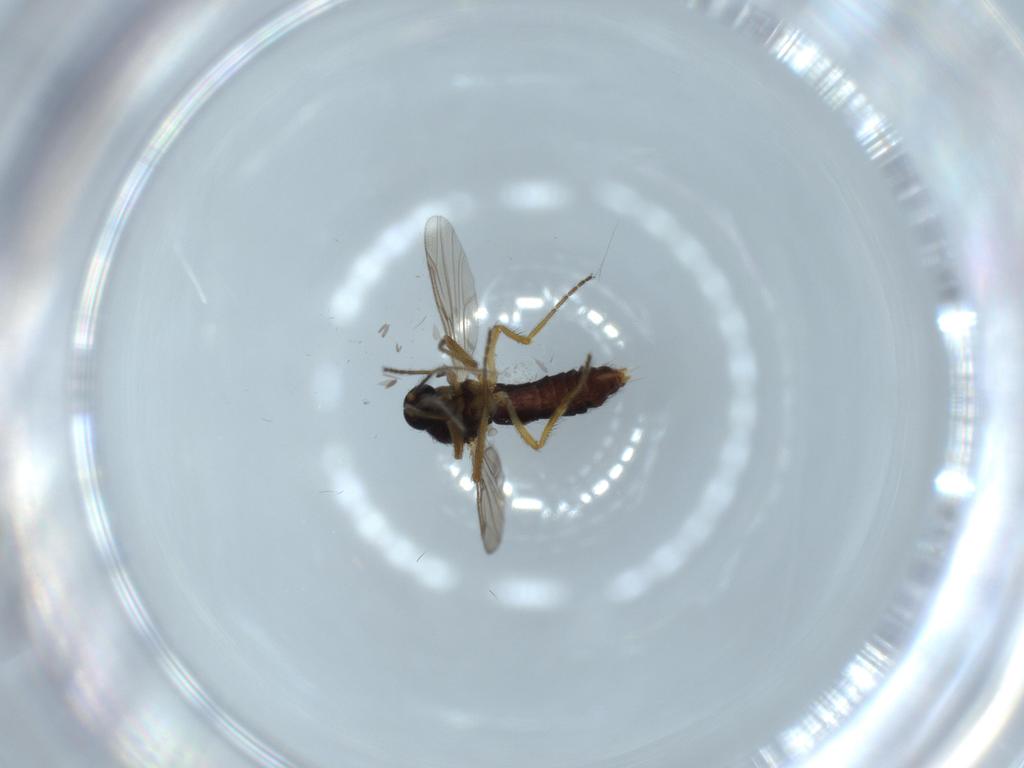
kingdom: Animalia
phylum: Arthropoda
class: Insecta
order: Diptera
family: Ceratopogonidae
